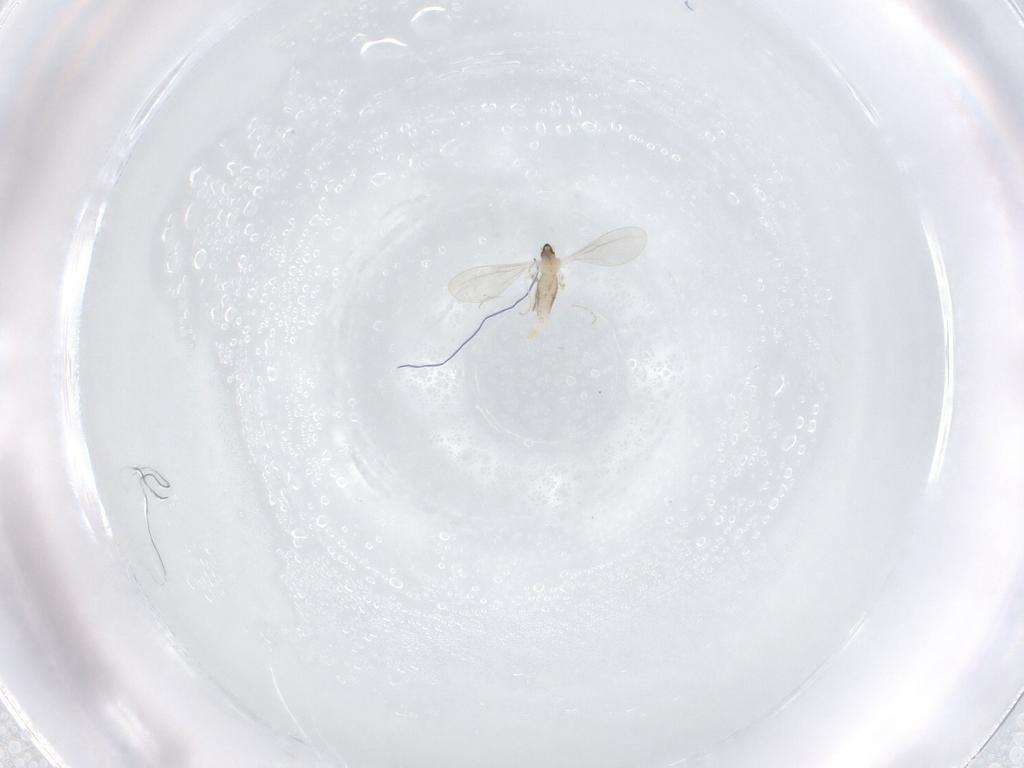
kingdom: Animalia
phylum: Arthropoda
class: Insecta
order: Diptera
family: Cecidomyiidae
